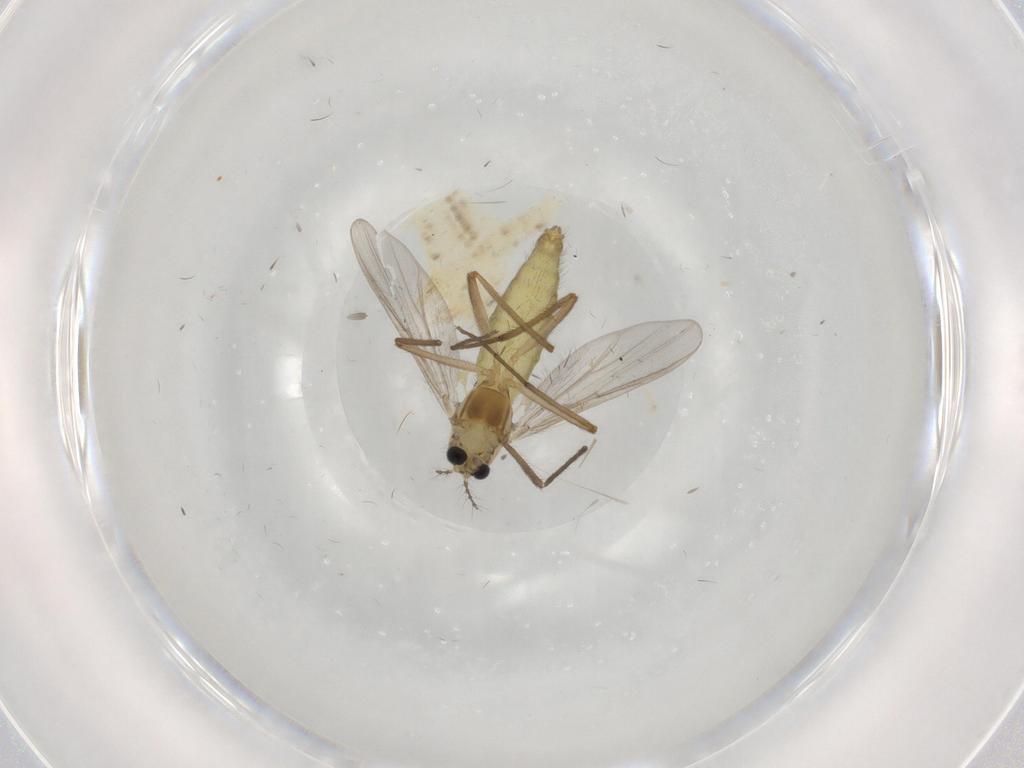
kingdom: Animalia
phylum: Arthropoda
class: Insecta
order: Diptera
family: Chironomidae
